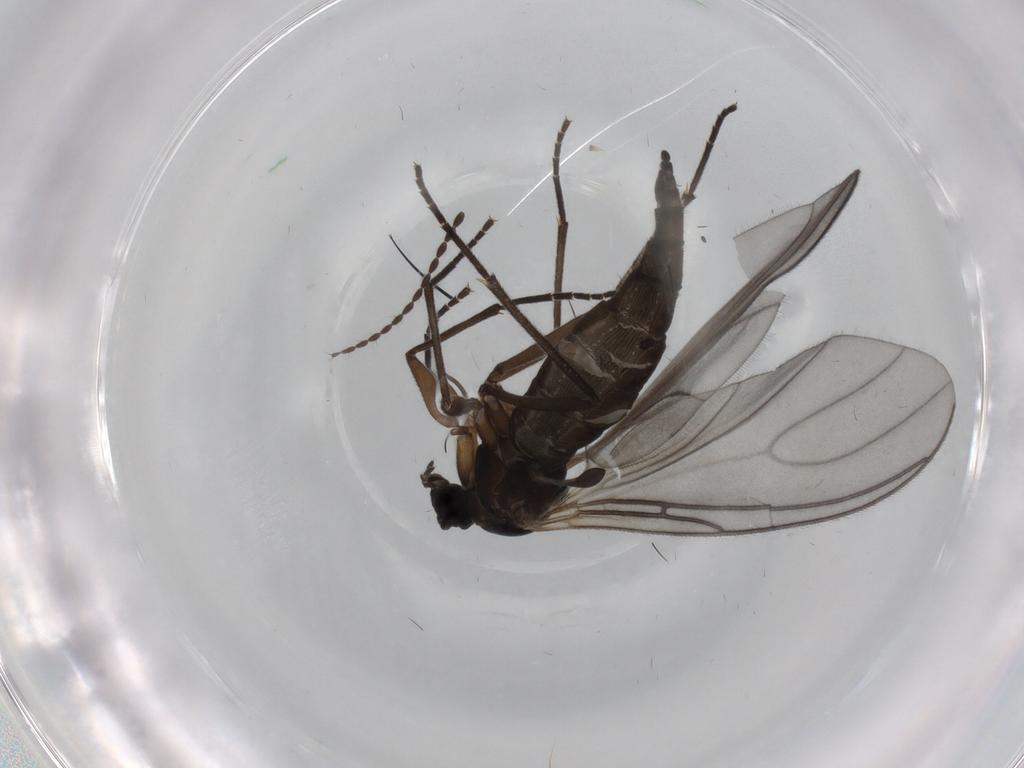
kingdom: Animalia
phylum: Arthropoda
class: Insecta
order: Diptera
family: Sciaridae
